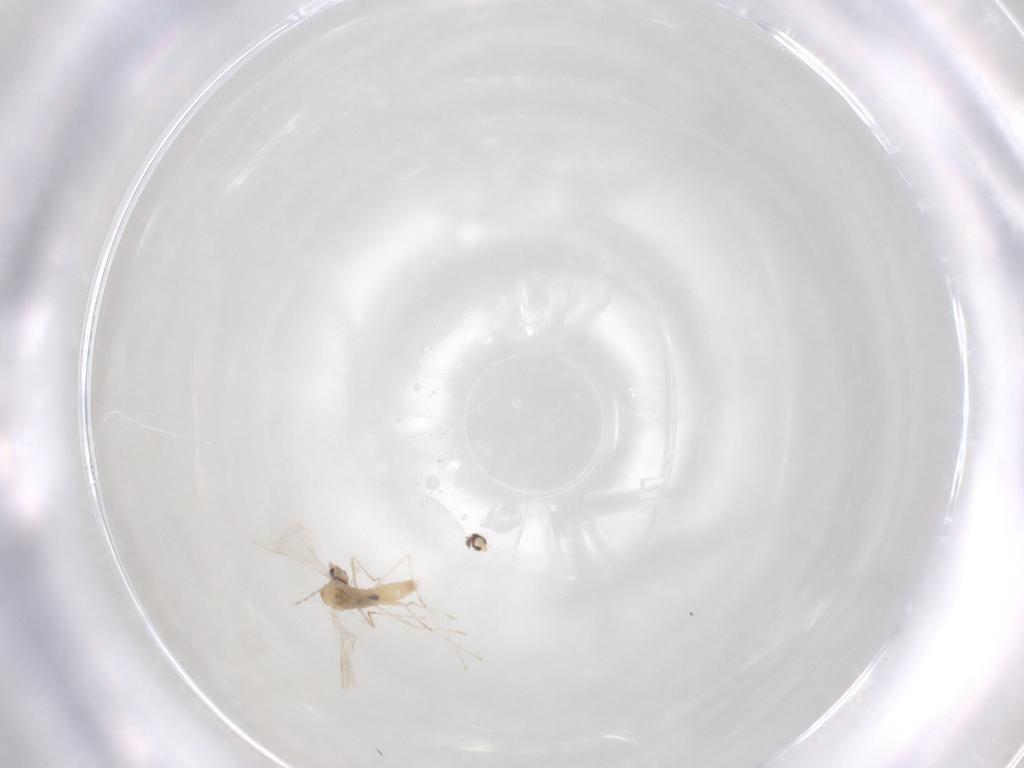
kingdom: Animalia
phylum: Arthropoda
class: Insecta
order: Diptera
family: Cecidomyiidae
